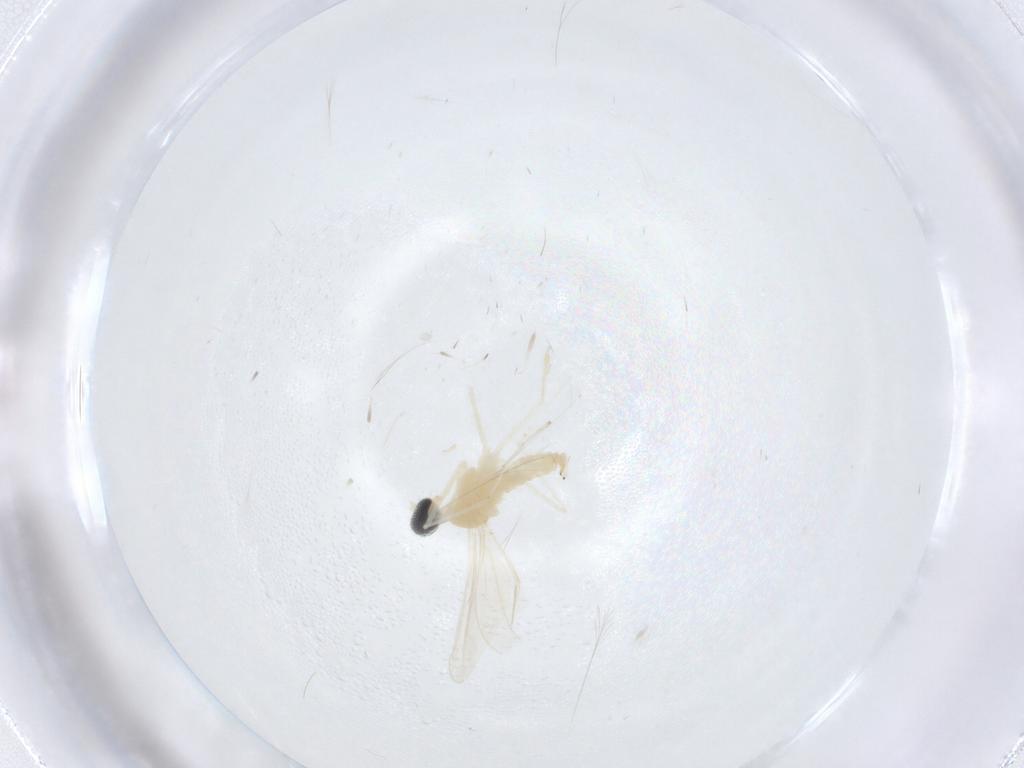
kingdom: Animalia
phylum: Arthropoda
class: Insecta
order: Diptera
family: Cecidomyiidae
